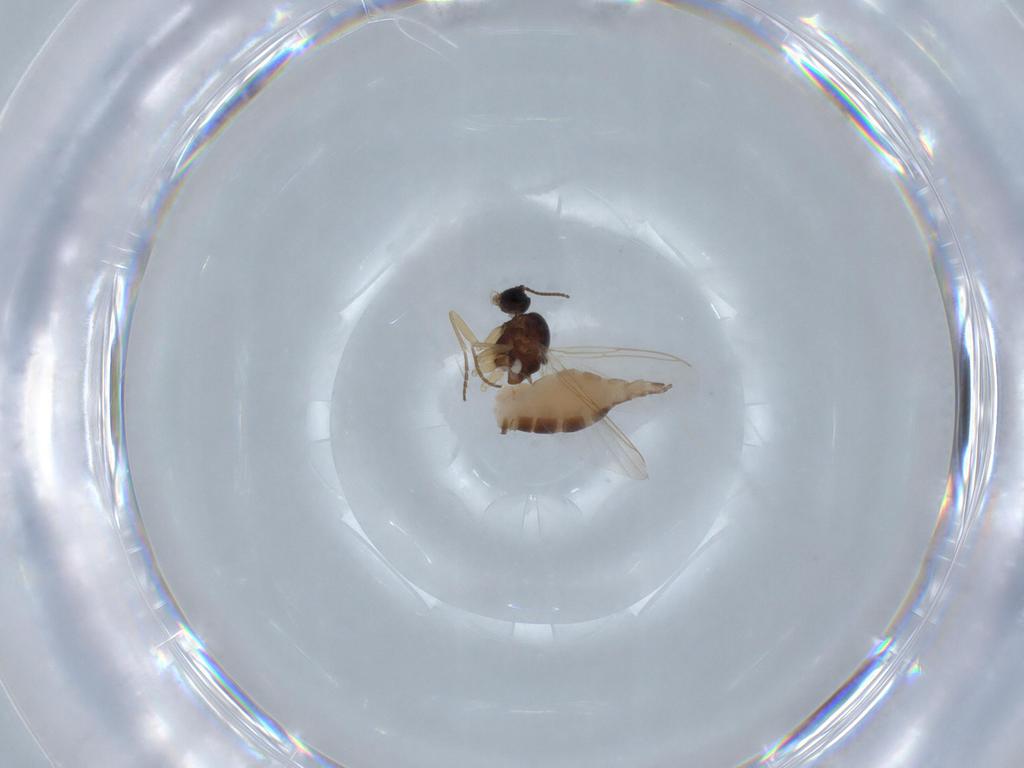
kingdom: Animalia
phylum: Arthropoda
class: Insecta
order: Diptera
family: Sciaridae
